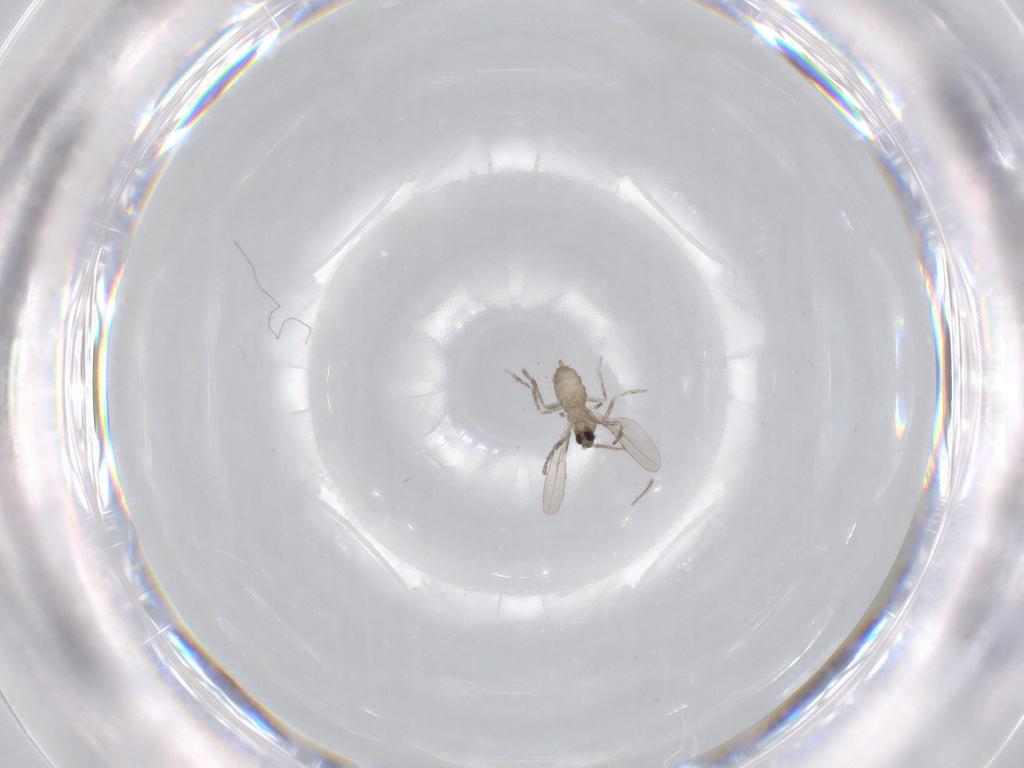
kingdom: Animalia
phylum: Arthropoda
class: Insecta
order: Diptera
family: Cecidomyiidae
